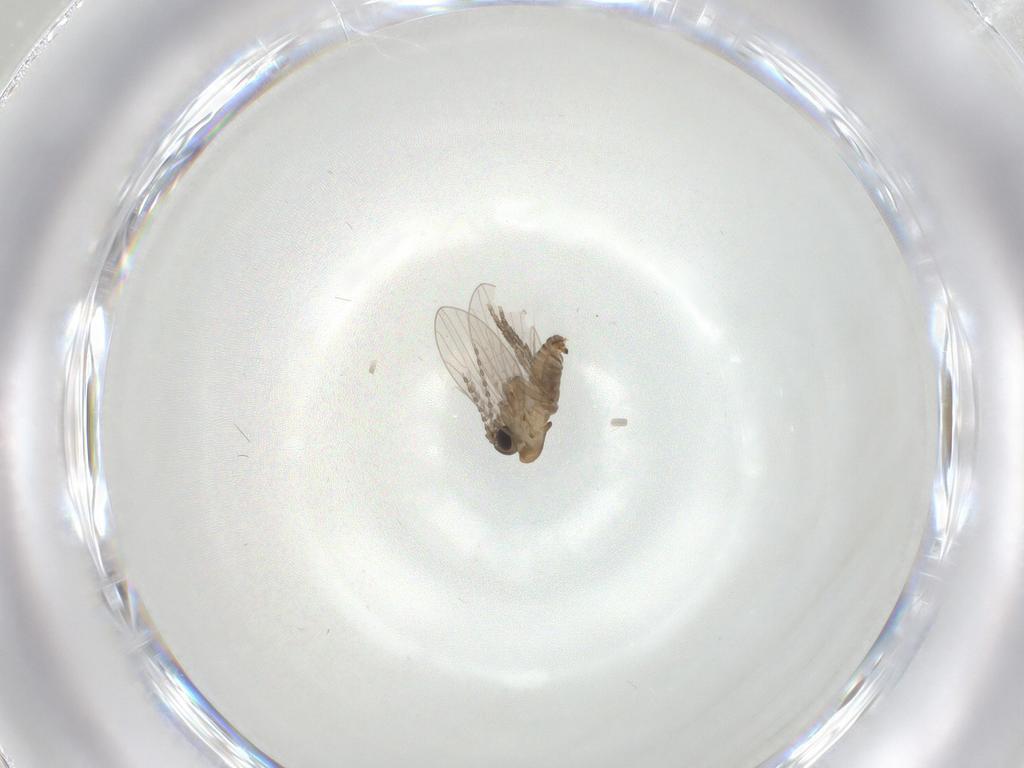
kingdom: Animalia
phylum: Arthropoda
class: Insecta
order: Diptera
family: Psychodidae
